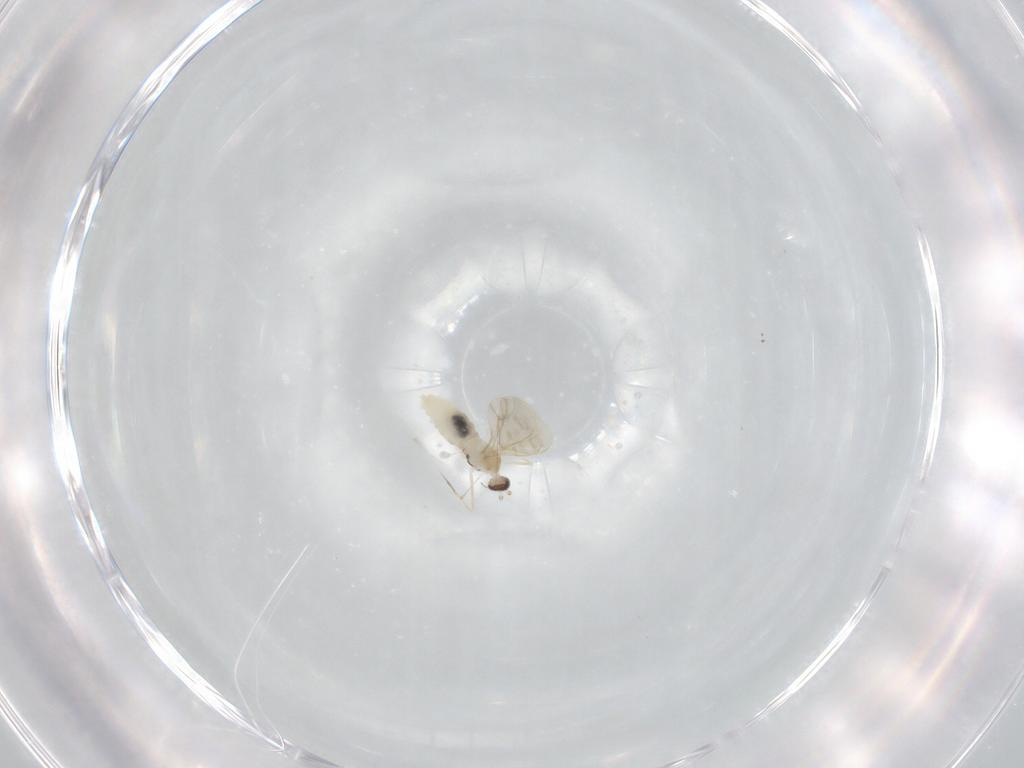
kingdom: Animalia
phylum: Arthropoda
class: Insecta
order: Diptera
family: Cecidomyiidae
